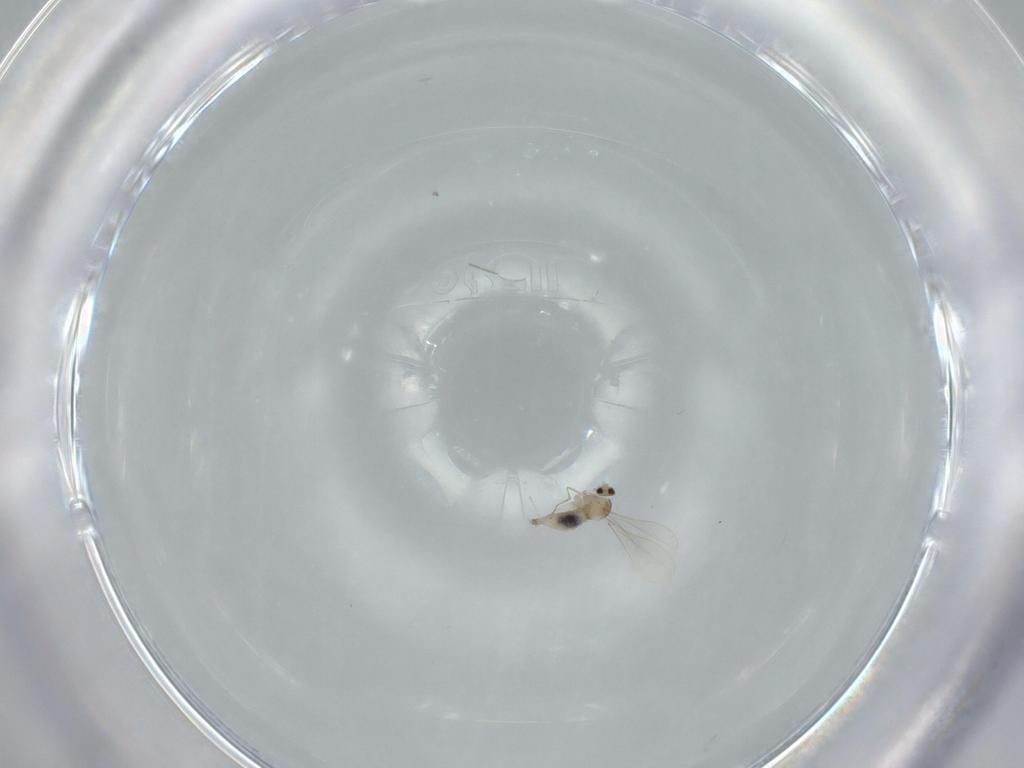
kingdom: Animalia
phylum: Arthropoda
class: Insecta
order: Diptera
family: Cecidomyiidae
